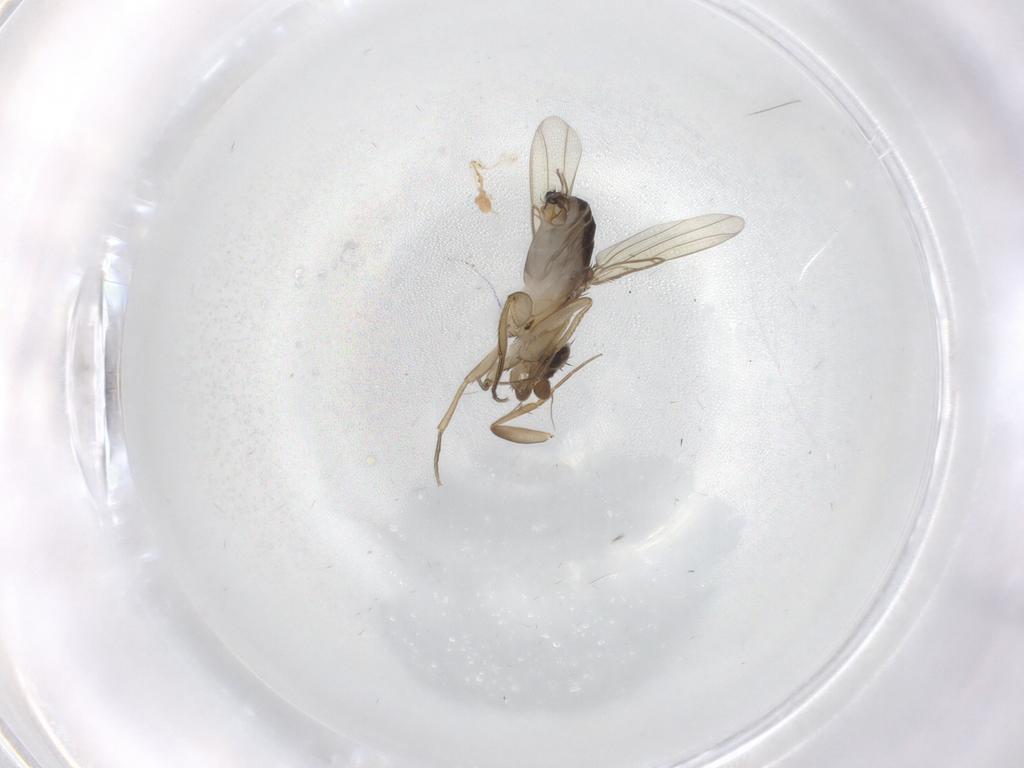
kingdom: Animalia
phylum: Arthropoda
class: Insecta
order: Diptera
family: Phoridae
